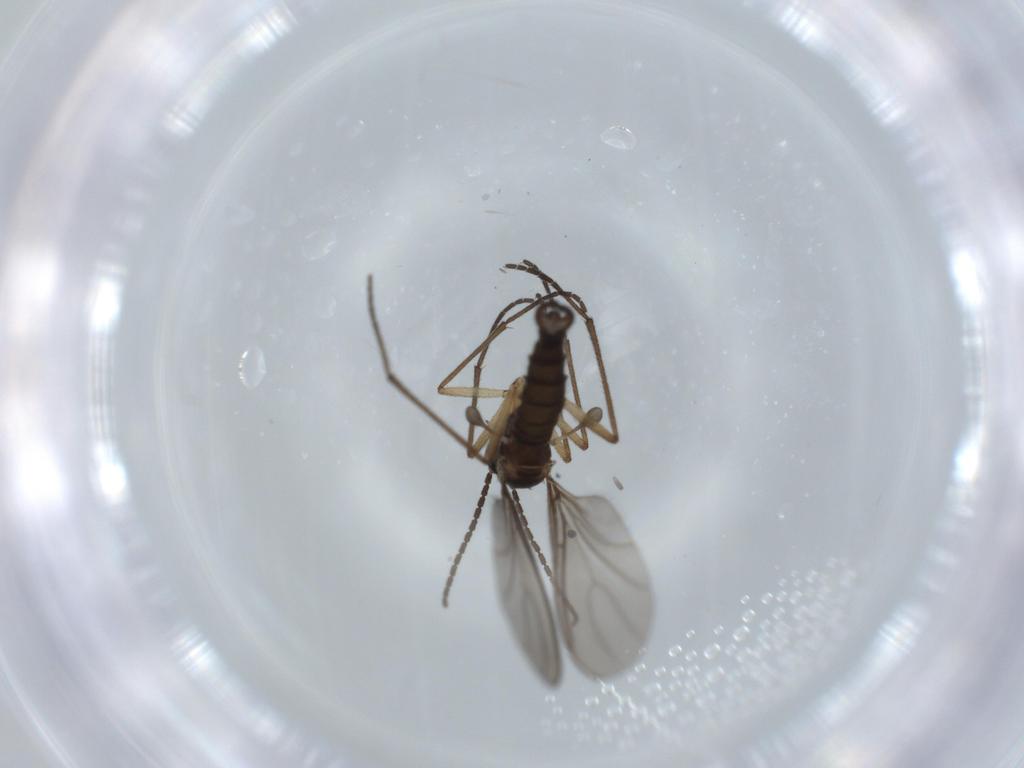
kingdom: Animalia
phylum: Arthropoda
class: Insecta
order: Diptera
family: Sciaridae
